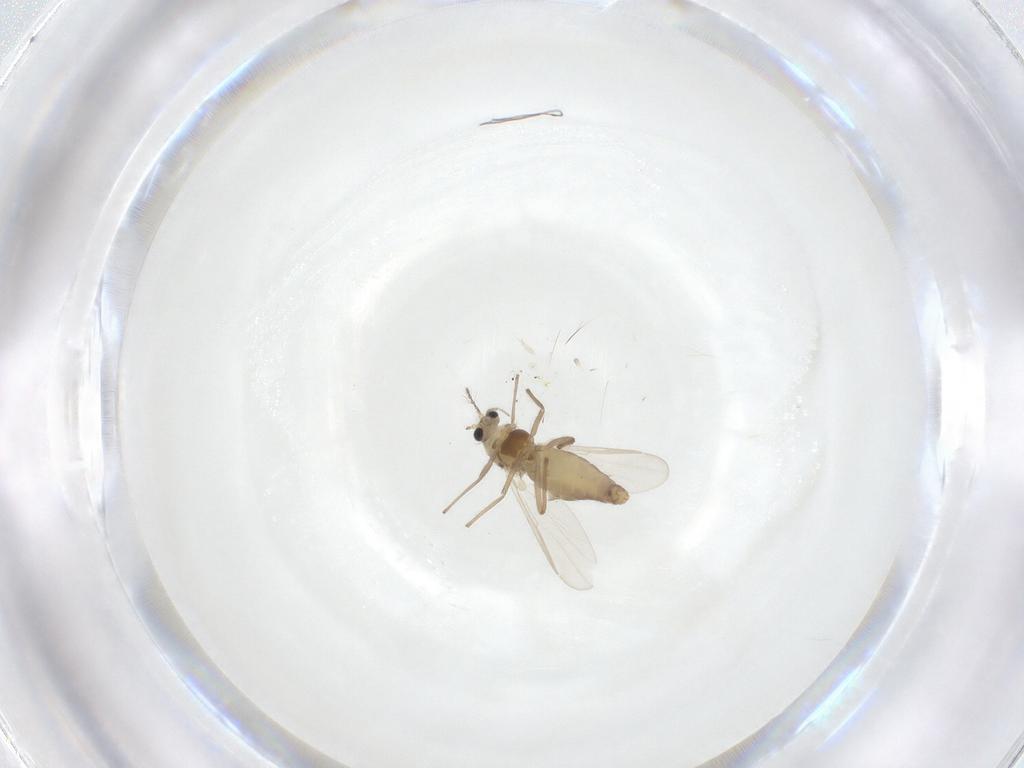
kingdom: Animalia
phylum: Arthropoda
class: Insecta
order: Diptera
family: Chironomidae
